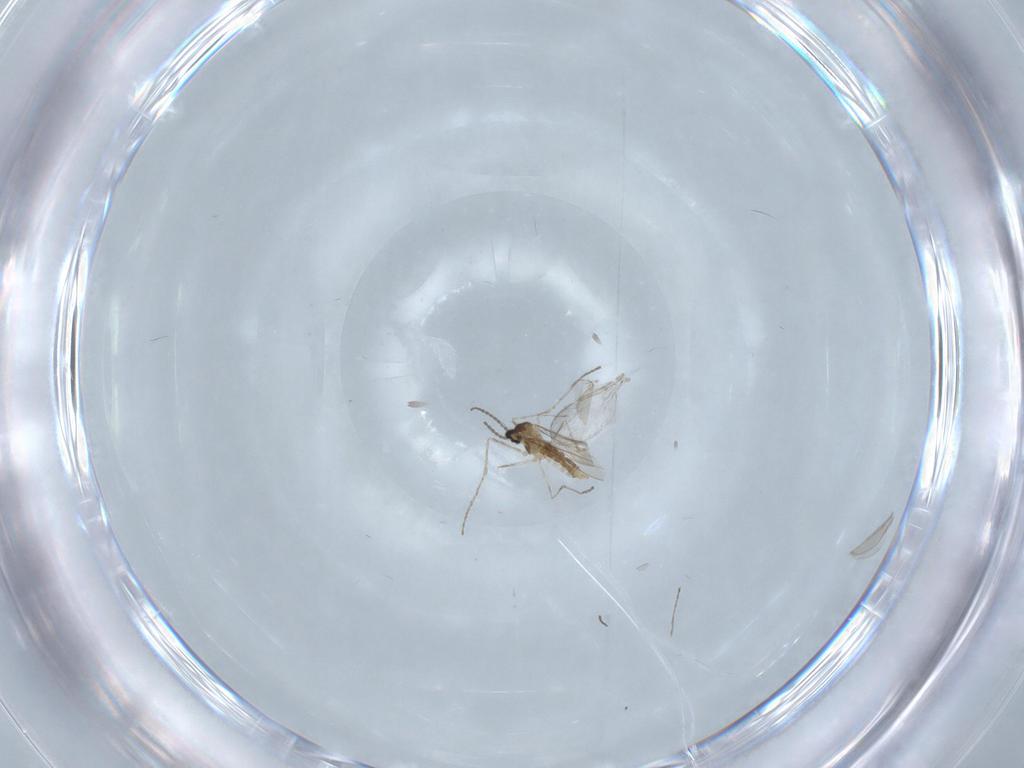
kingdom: Animalia
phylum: Arthropoda
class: Insecta
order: Diptera
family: Cecidomyiidae
